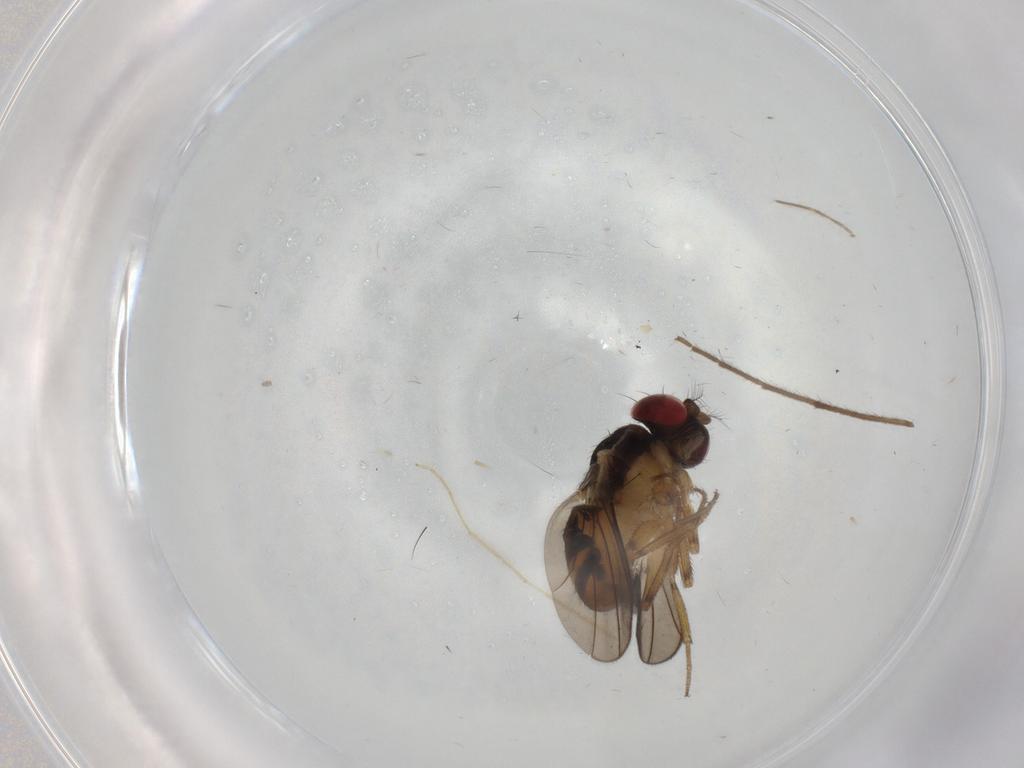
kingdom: Animalia
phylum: Arthropoda
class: Insecta
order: Diptera
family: Drosophilidae
